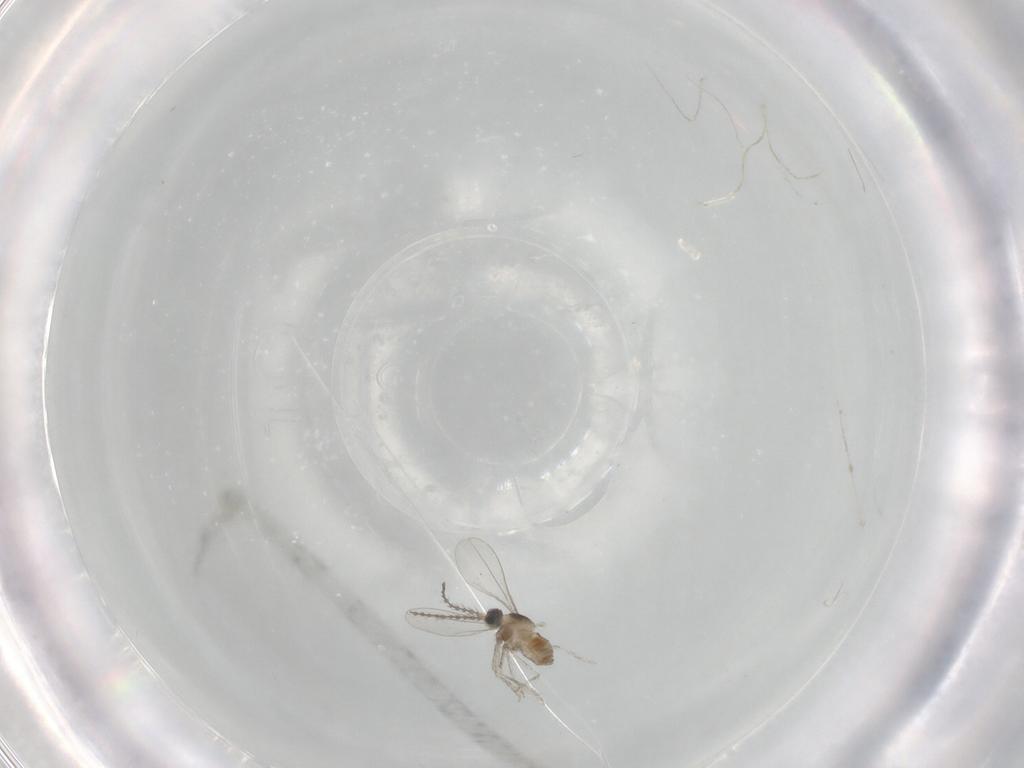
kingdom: Animalia
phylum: Arthropoda
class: Insecta
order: Diptera
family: Cecidomyiidae
